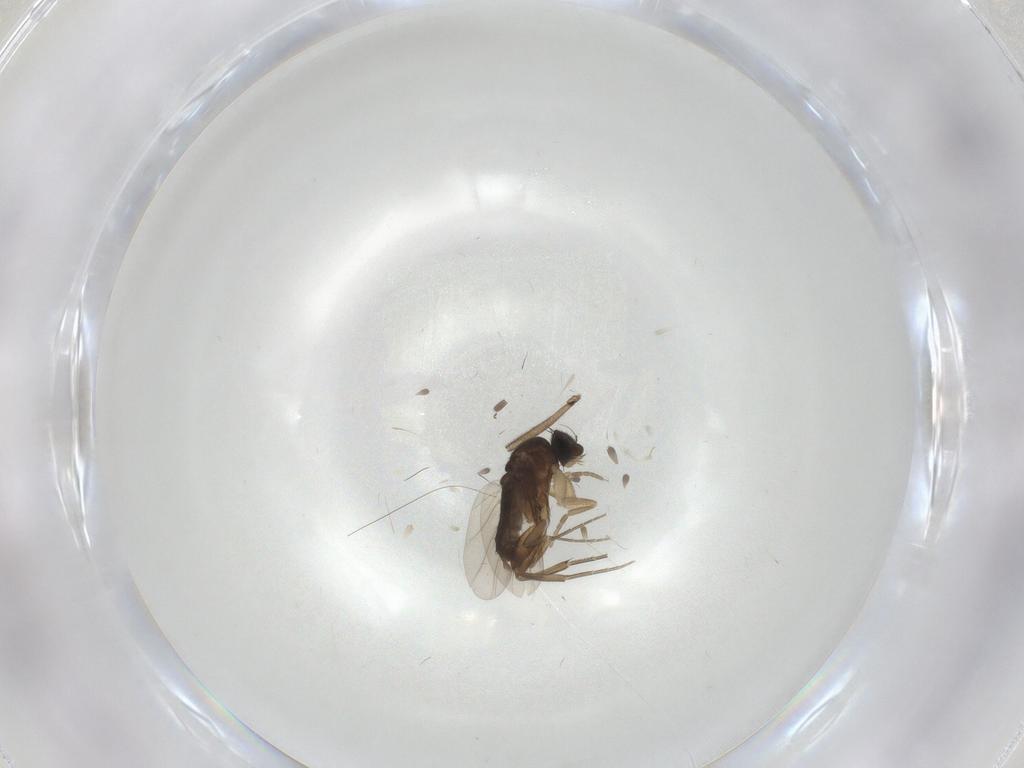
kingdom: Animalia
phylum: Arthropoda
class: Insecta
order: Diptera
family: Phoridae
